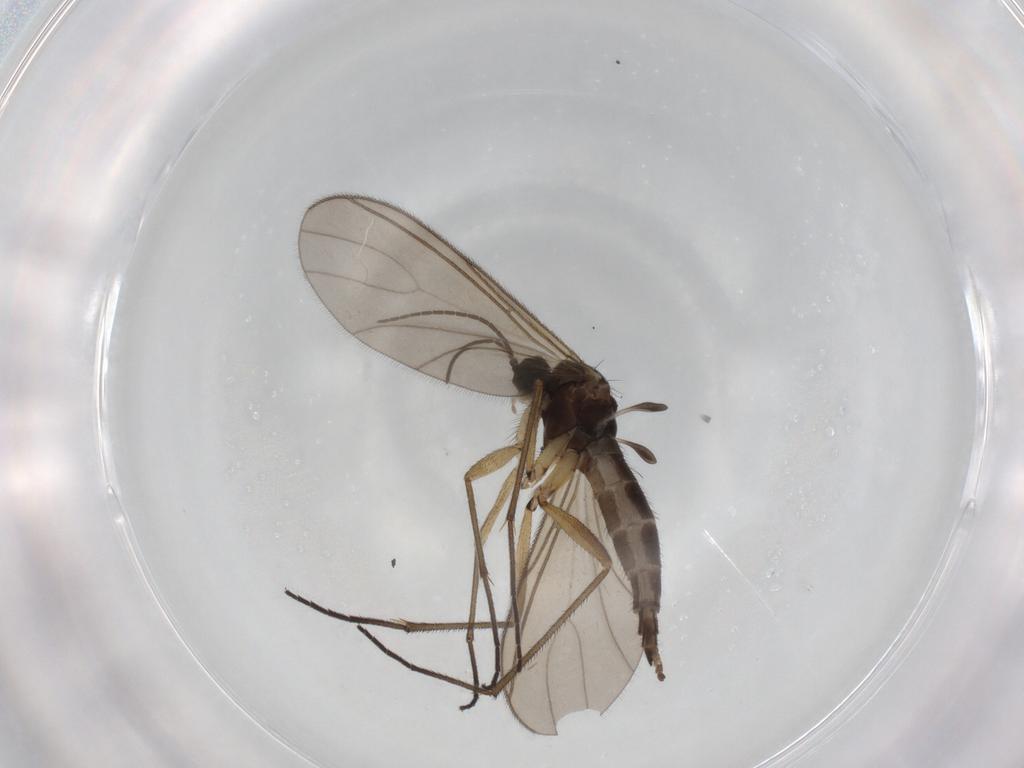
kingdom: Animalia
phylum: Arthropoda
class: Insecta
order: Diptera
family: Sciaridae
